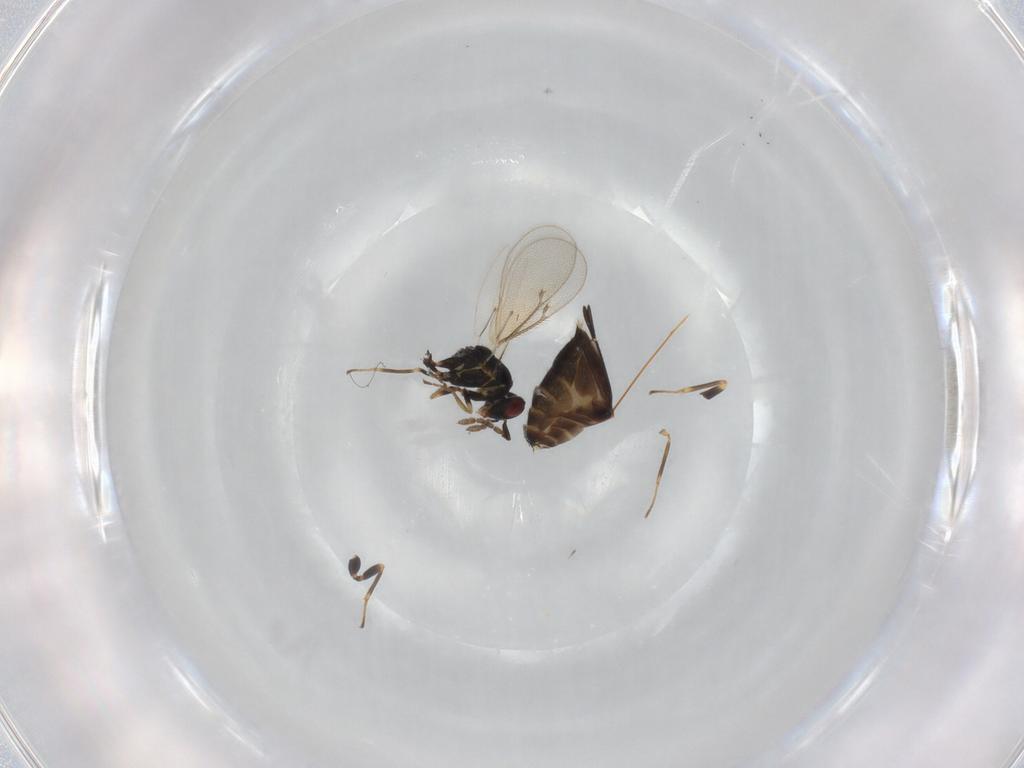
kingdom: Animalia
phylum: Arthropoda
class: Insecta
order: Hymenoptera
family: Eulophidae
